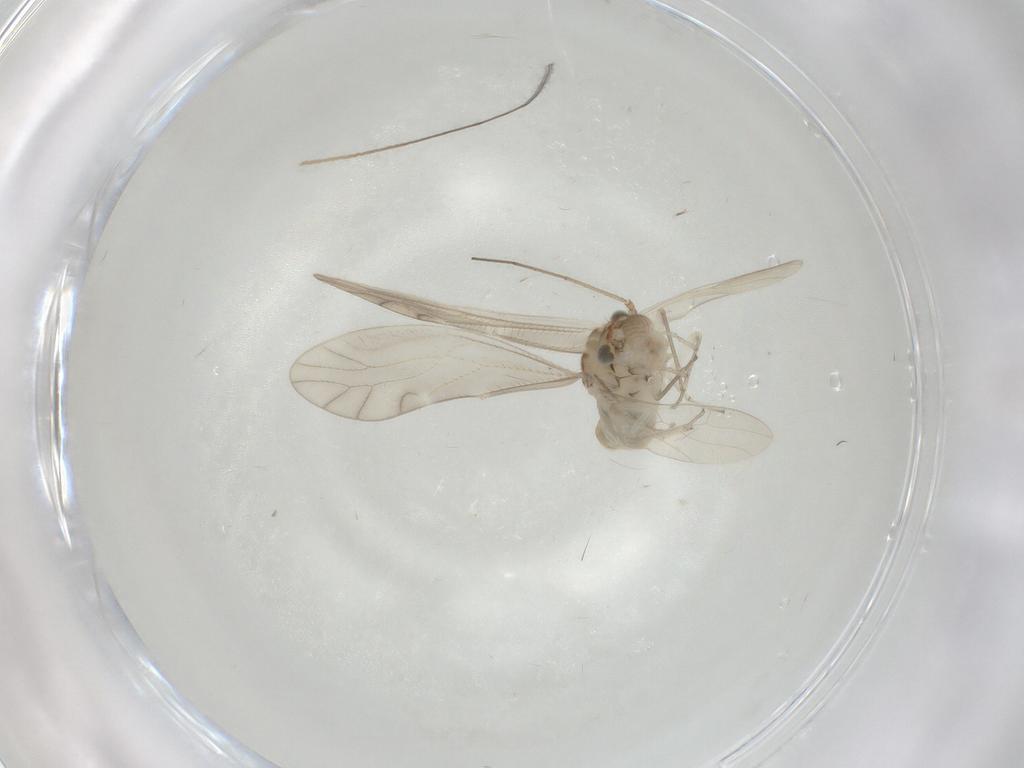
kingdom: Animalia
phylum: Arthropoda
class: Insecta
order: Psocodea
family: Caeciliusidae
